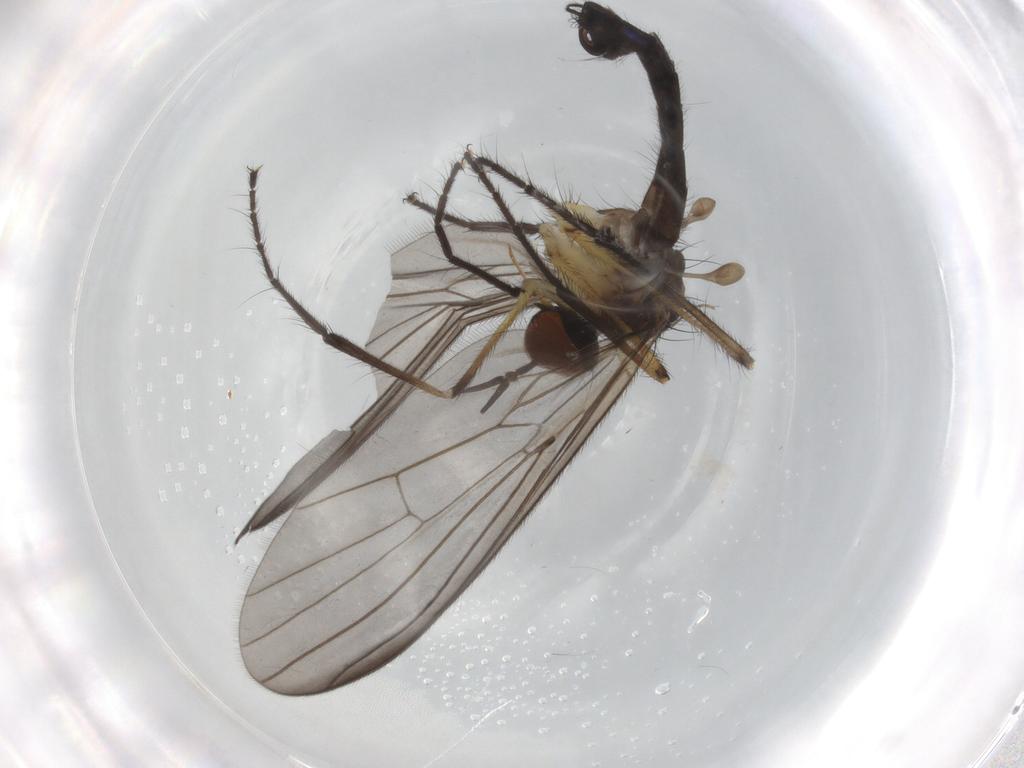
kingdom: Animalia
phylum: Arthropoda
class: Insecta
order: Diptera
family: Empididae
